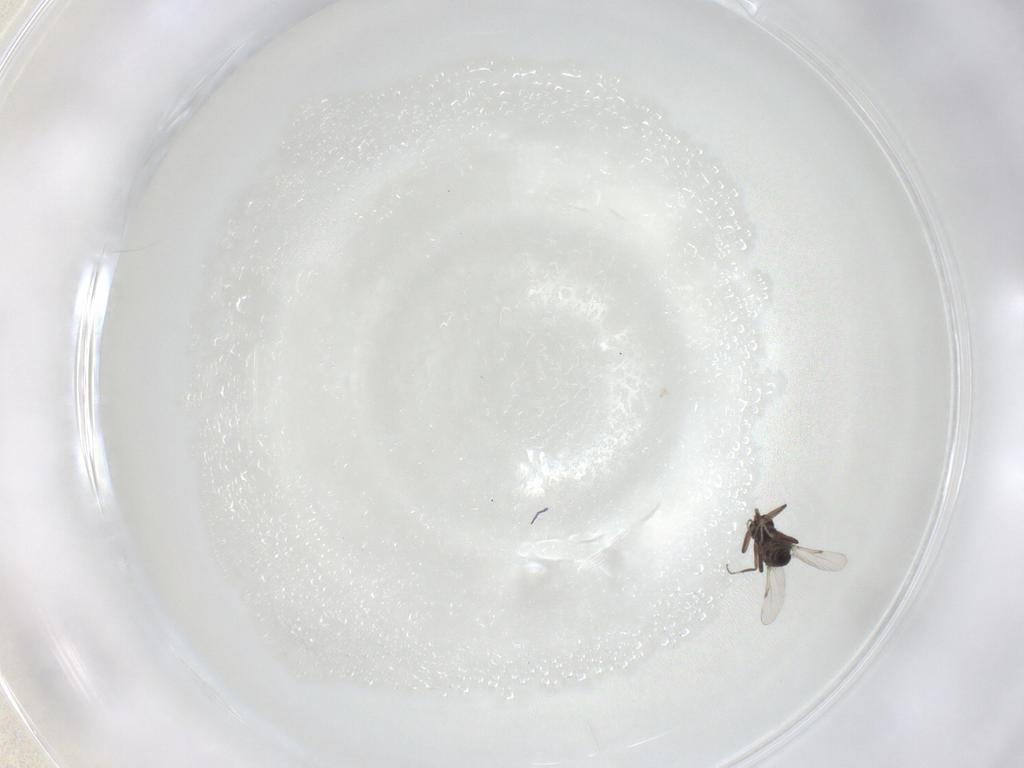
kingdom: Animalia
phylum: Arthropoda
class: Insecta
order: Diptera
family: Ceratopogonidae
